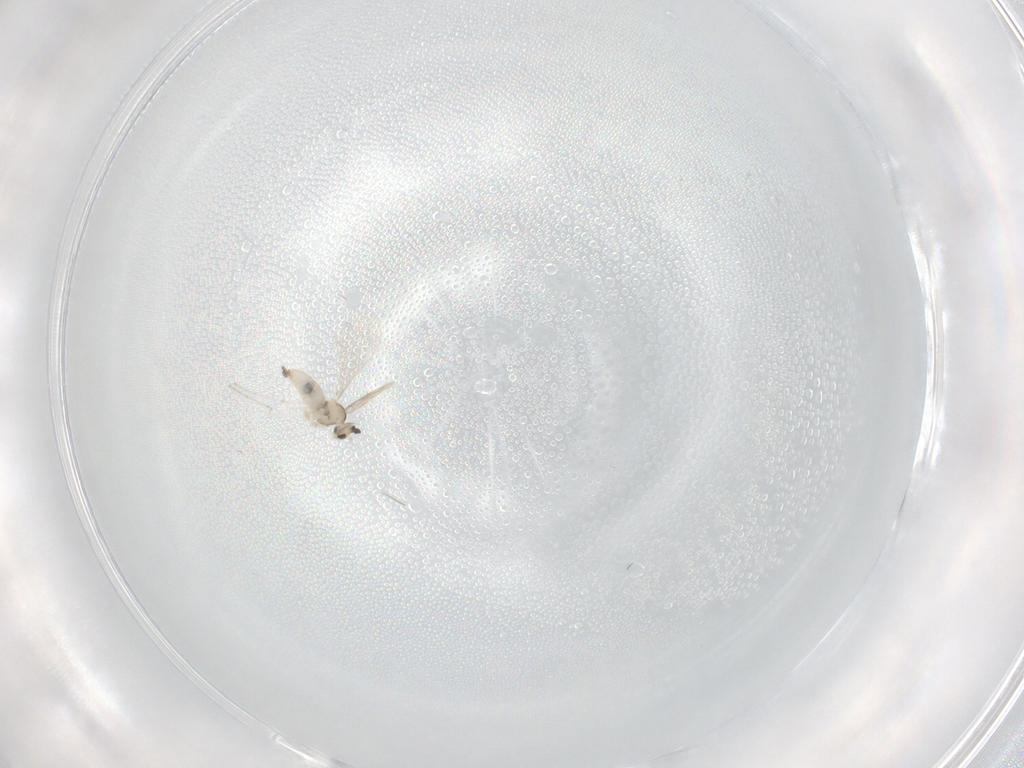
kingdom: Animalia
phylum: Arthropoda
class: Insecta
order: Diptera
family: Cecidomyiidae
